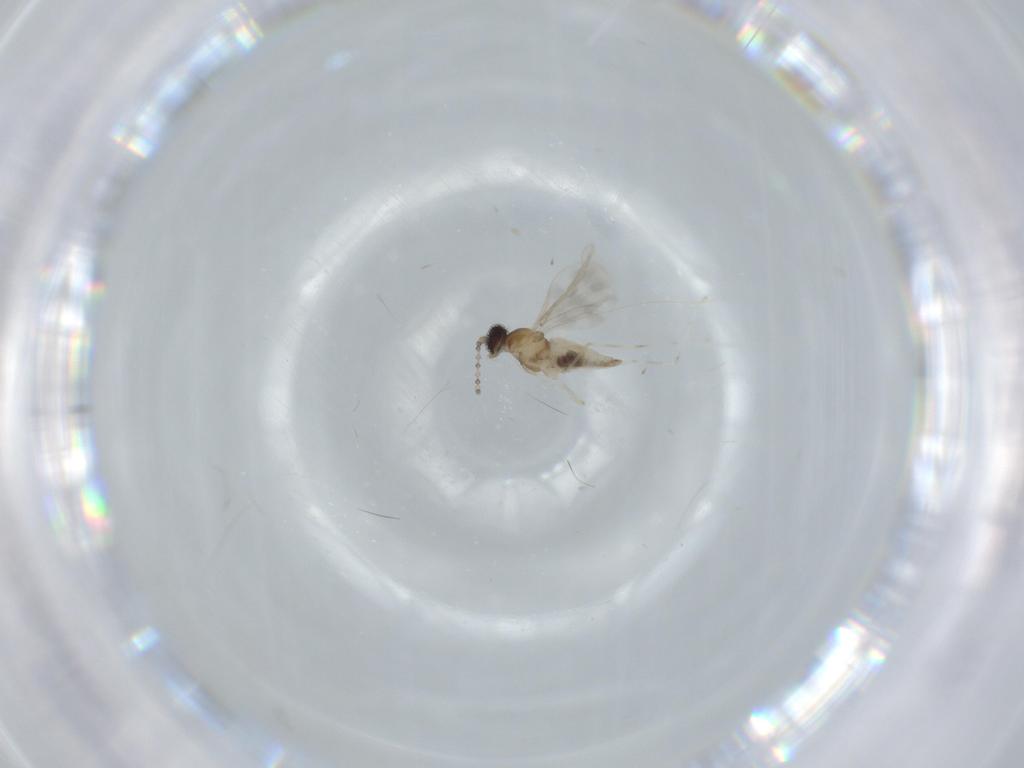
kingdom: Animalia
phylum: Arthropoda
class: Insecta
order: Diptera
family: Cecidomyiidae
